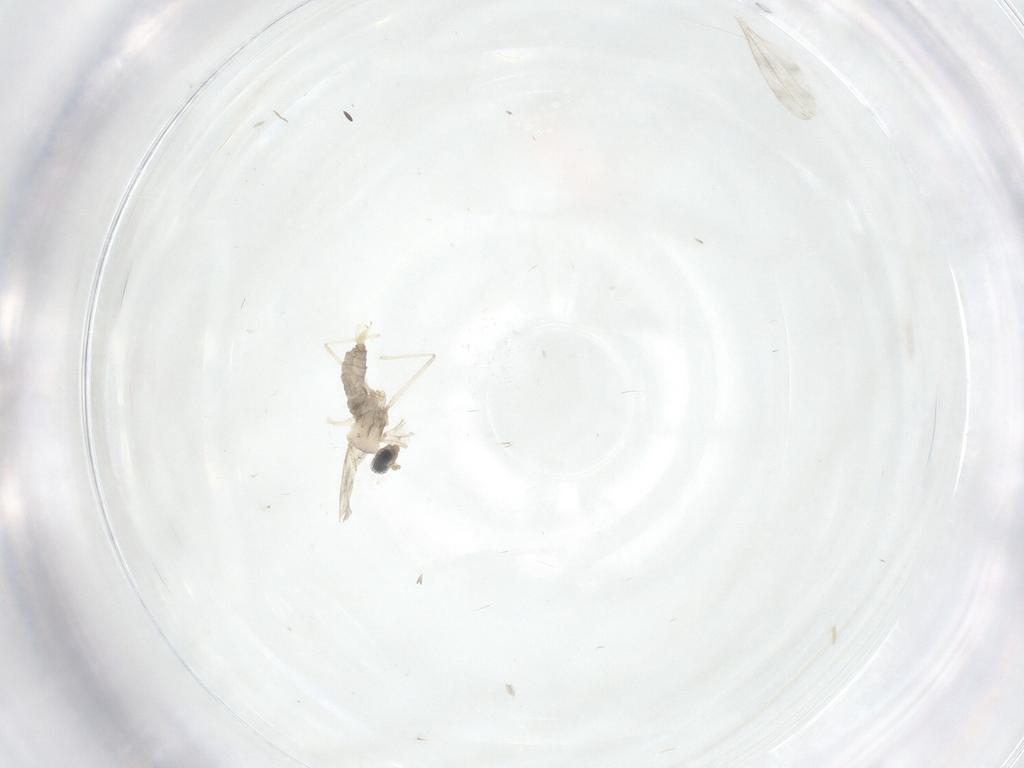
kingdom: Animalia
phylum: Arthropoda
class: Insecta
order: Diptera
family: Cecidomyiidae
